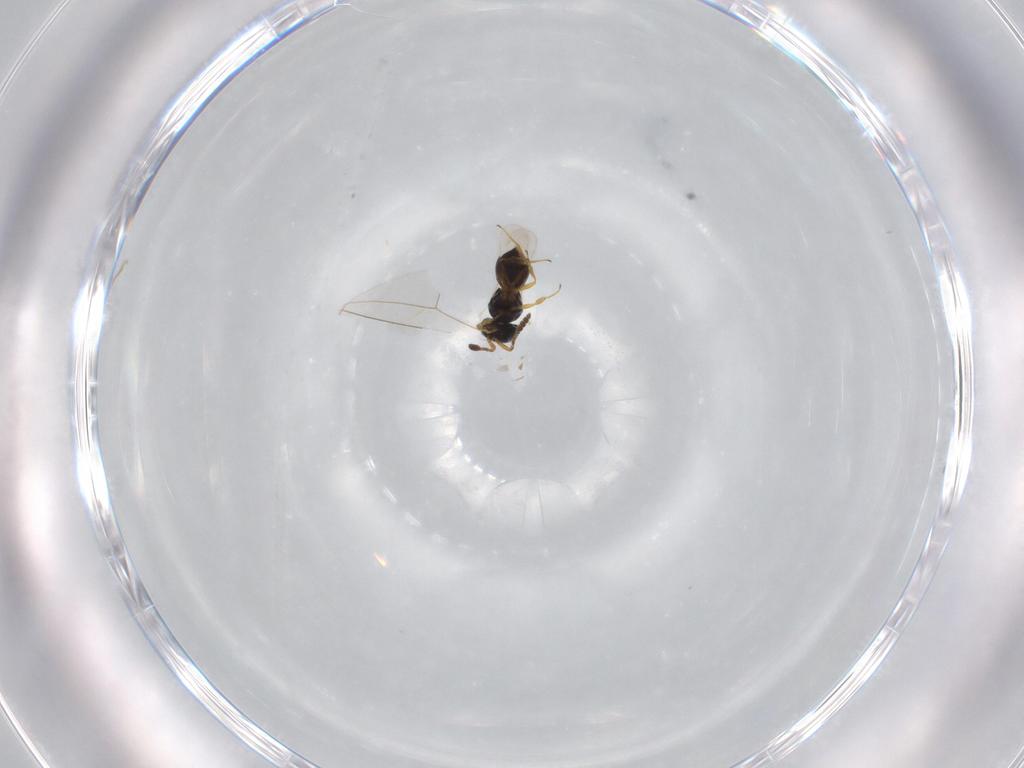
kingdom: Animalia
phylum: Arthropoda
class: Insecta
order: Hymenoptera
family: Scelionidae
